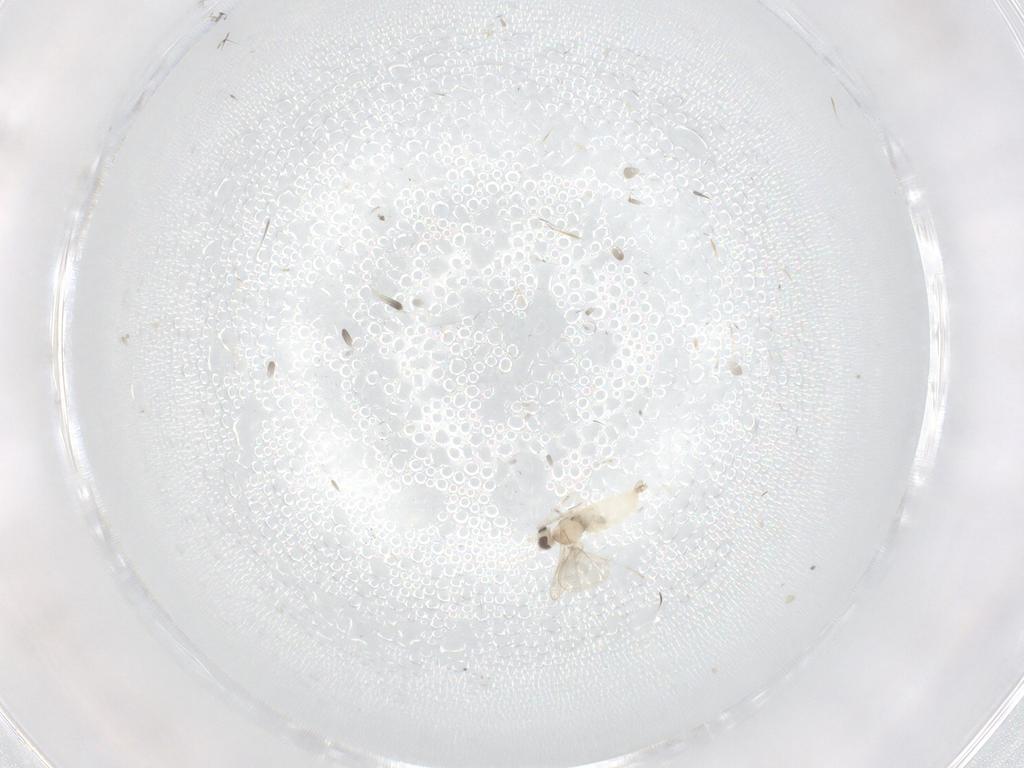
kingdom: Animalia
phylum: Arthropoda
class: Insecta
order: Diptera
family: Cecidomyiidae
